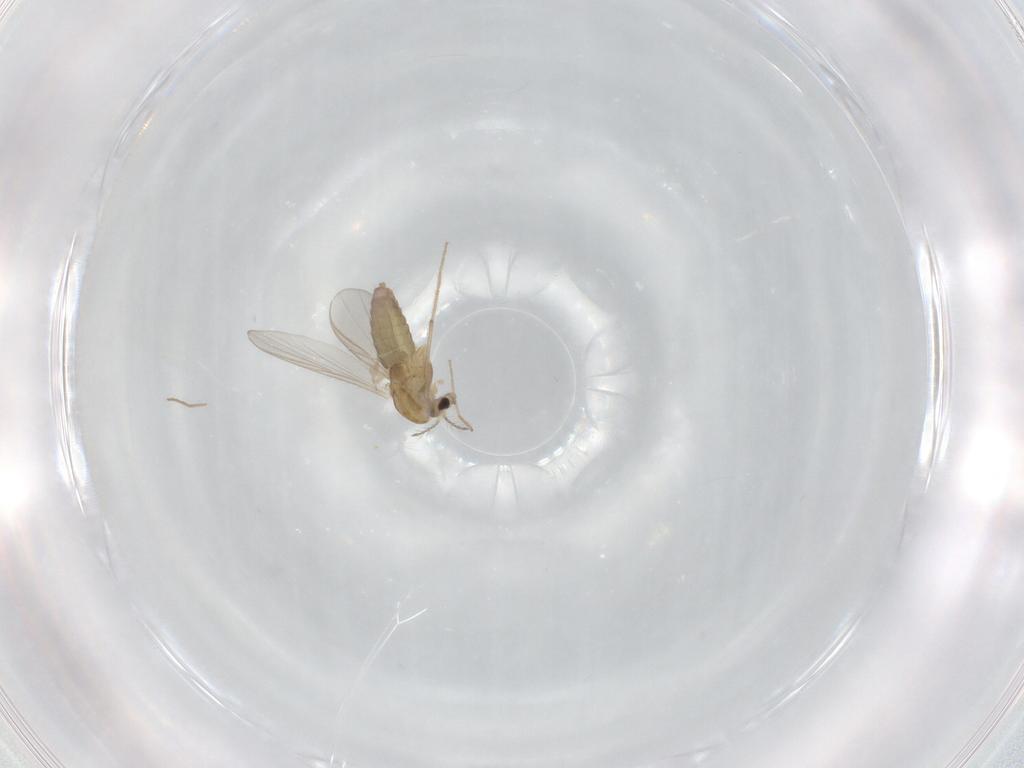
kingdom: Animalia
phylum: Arthropoda
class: Insecta
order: Diptera
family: Chironomidae
